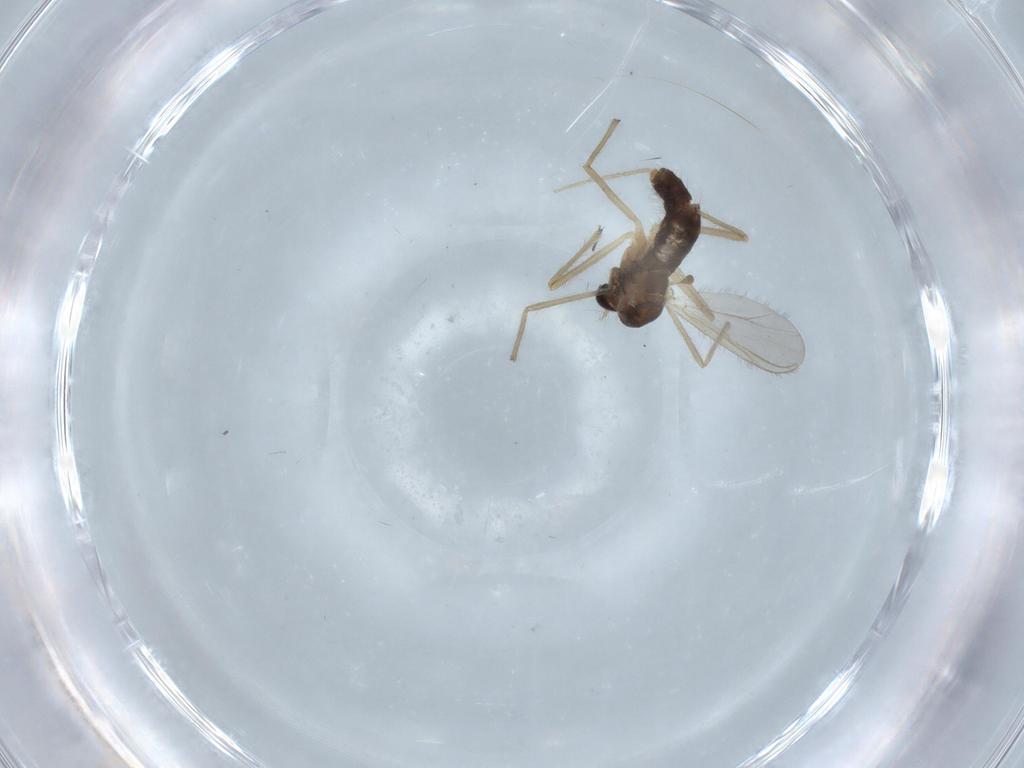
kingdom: Animalia
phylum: Arthropoda
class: Insecta
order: Diptera
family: Chironomidae
